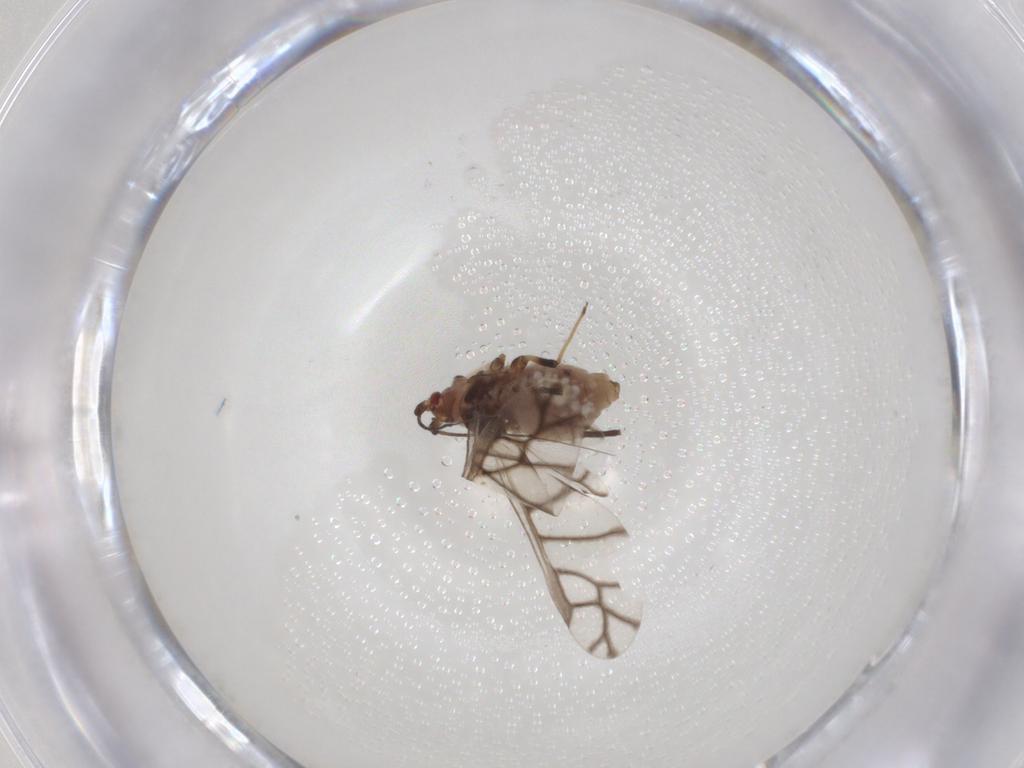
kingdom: Animalia
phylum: Arthropoda
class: Insecta
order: Hemiptera
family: Aphididae
